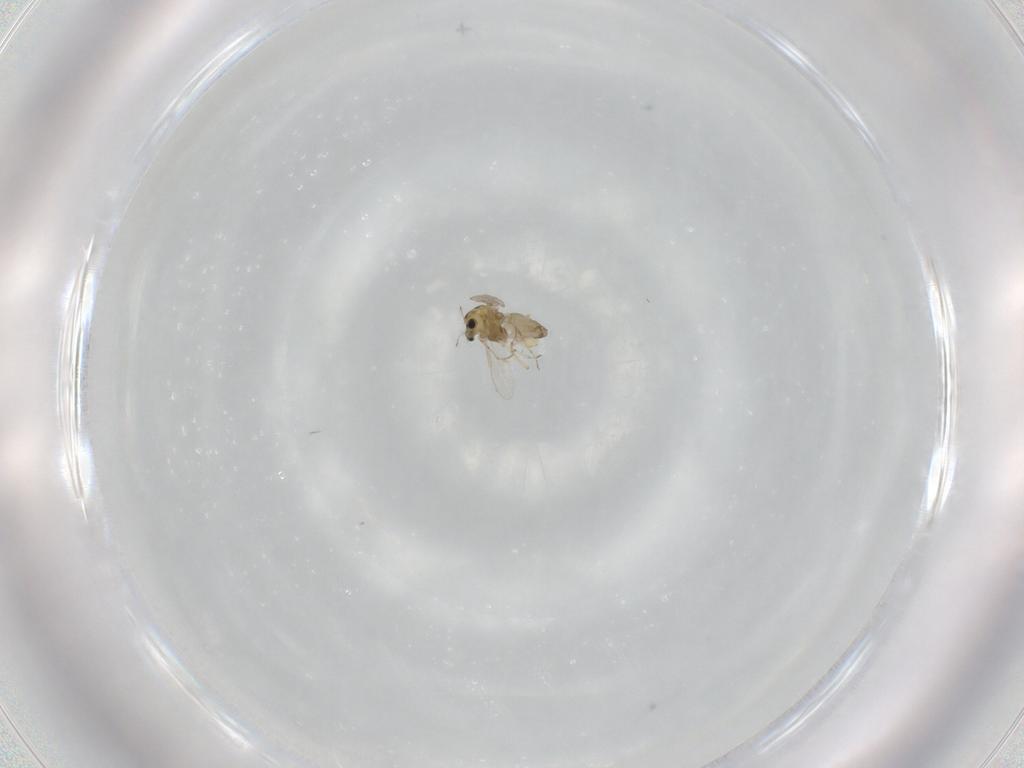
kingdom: Animalia
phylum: Arthropoda
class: Insecta
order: Diptera
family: Chironomidae
